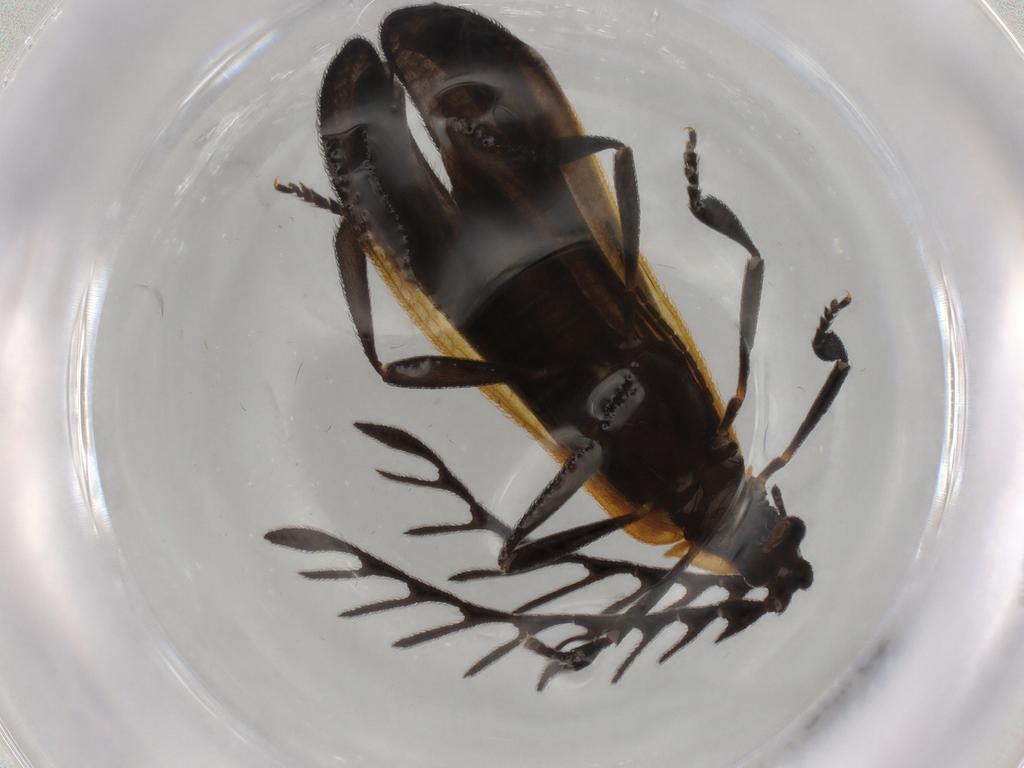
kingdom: Animalia
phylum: Arthropoda
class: Insecta
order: Coleoptera
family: Lycidae
